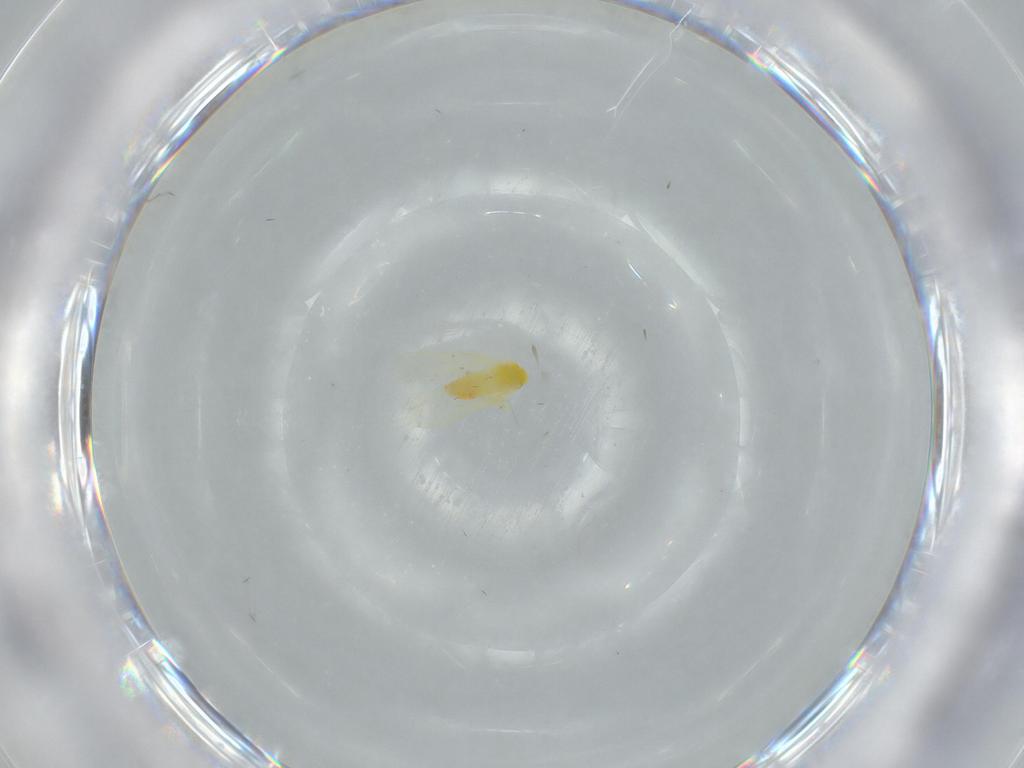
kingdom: Animalia
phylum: Arthropoda
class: Insecta
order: Hemiptera
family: Aleyrodidae
